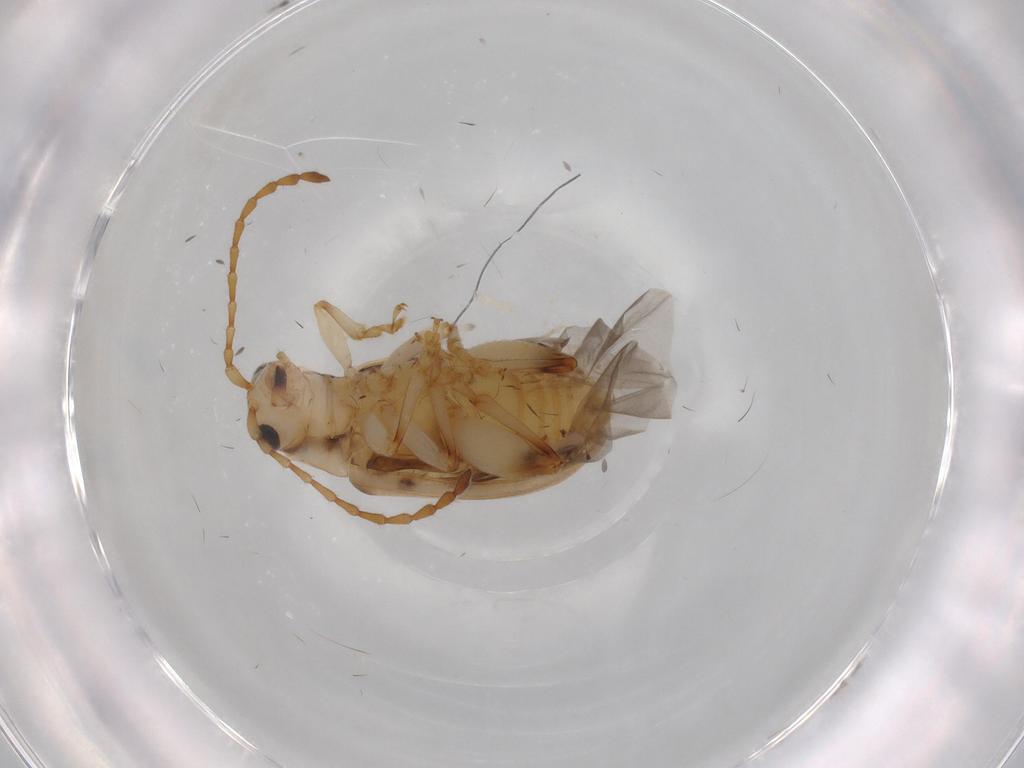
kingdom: Animalia
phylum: Arthropoda
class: Insecta
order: Coleoptera
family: Chrysomelidae
